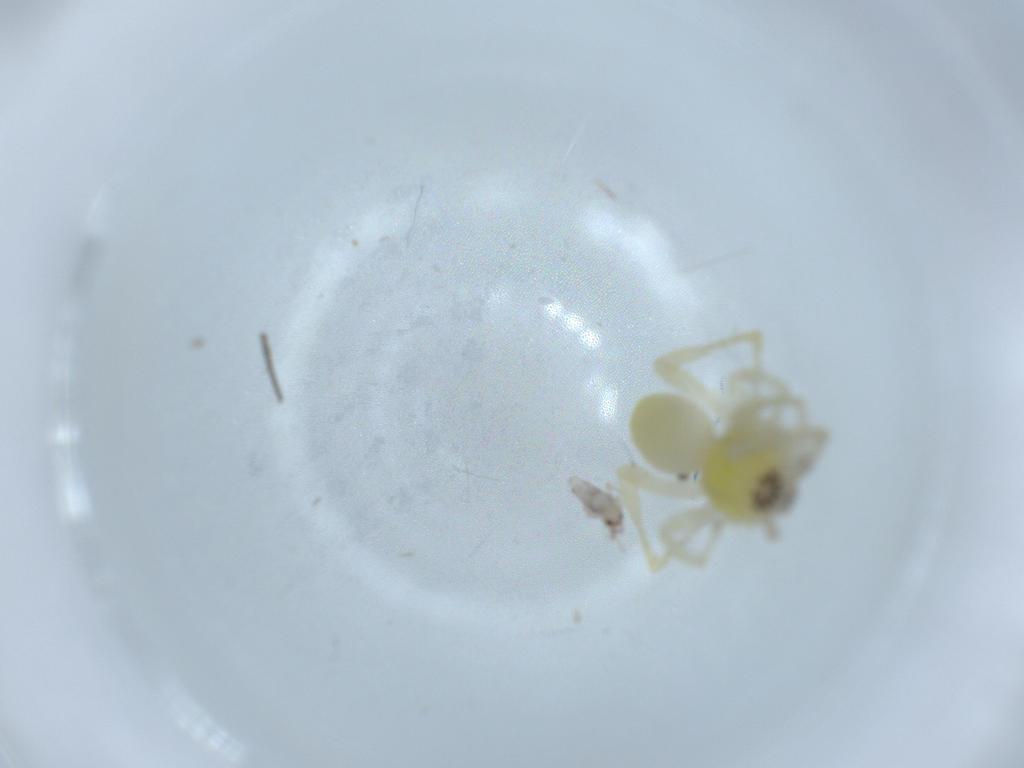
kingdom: Animalia
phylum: Arthropoda
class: Collembola
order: Entomobryomorpha
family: Entomobryidae
